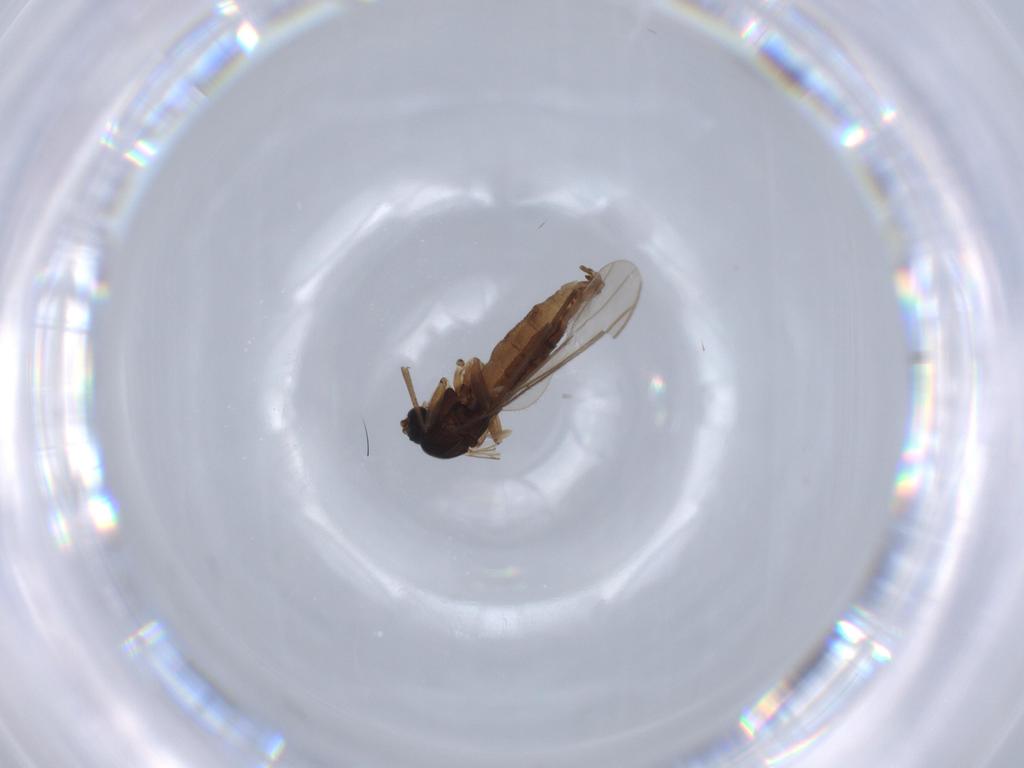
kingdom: Animalia
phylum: Arthropoda
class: Insecta
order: Diptera
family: Sciaridae
